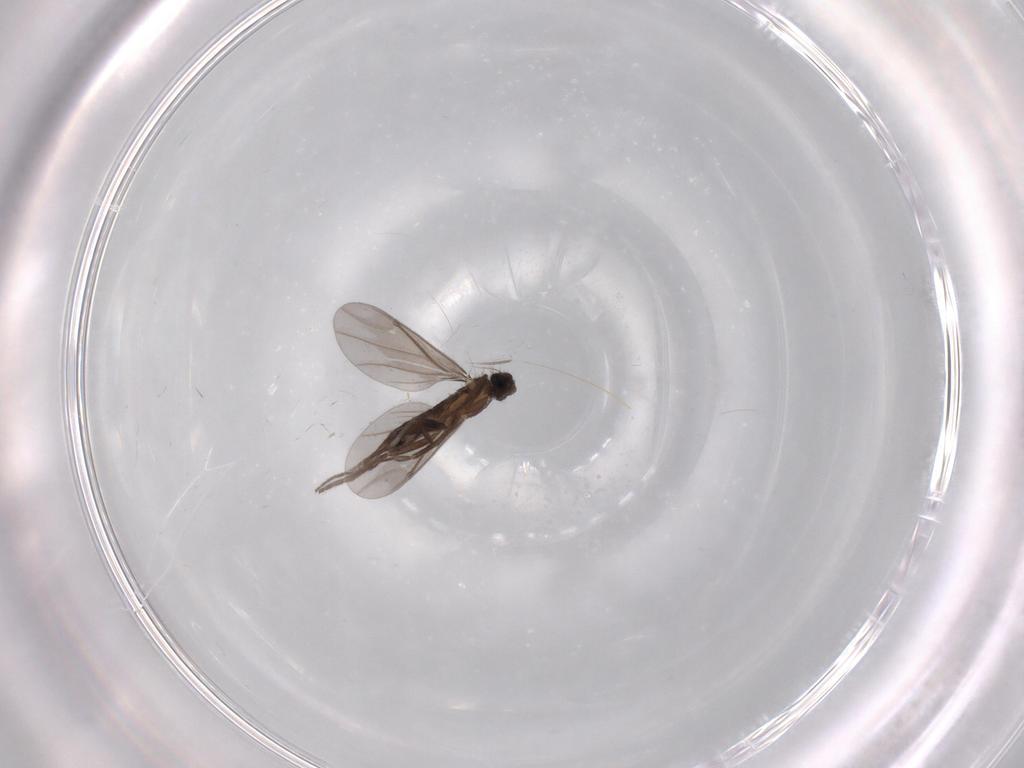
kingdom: Animalia
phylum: Arthropoda
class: Insecta
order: Diptera
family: Phoridae
